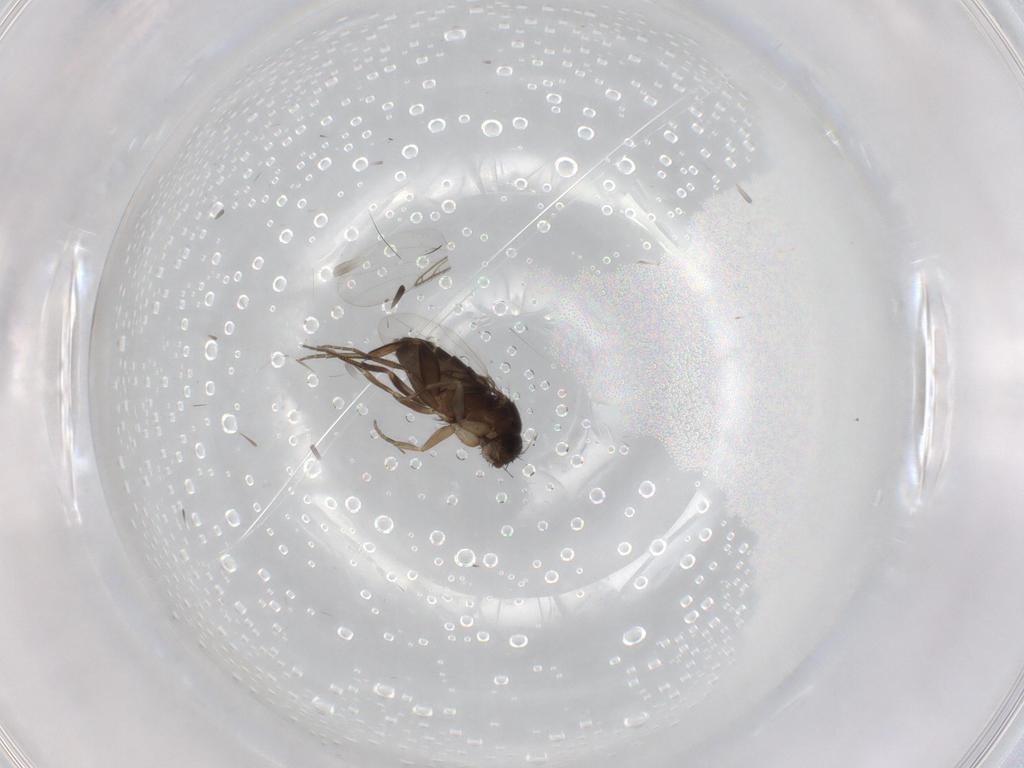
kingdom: Animalia
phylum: Arthropoda
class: Insecta
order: Diptera
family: Phoridae
